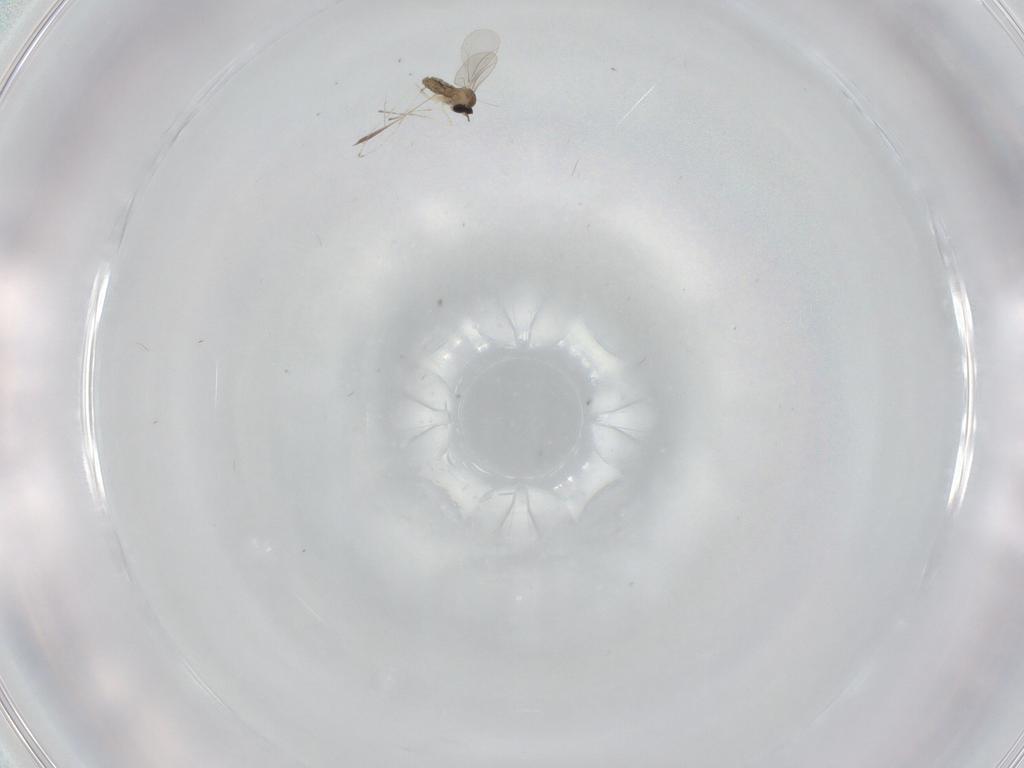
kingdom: Animalia
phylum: Arthropoda
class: Insecta
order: Diptera
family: Cecidomyiidae
